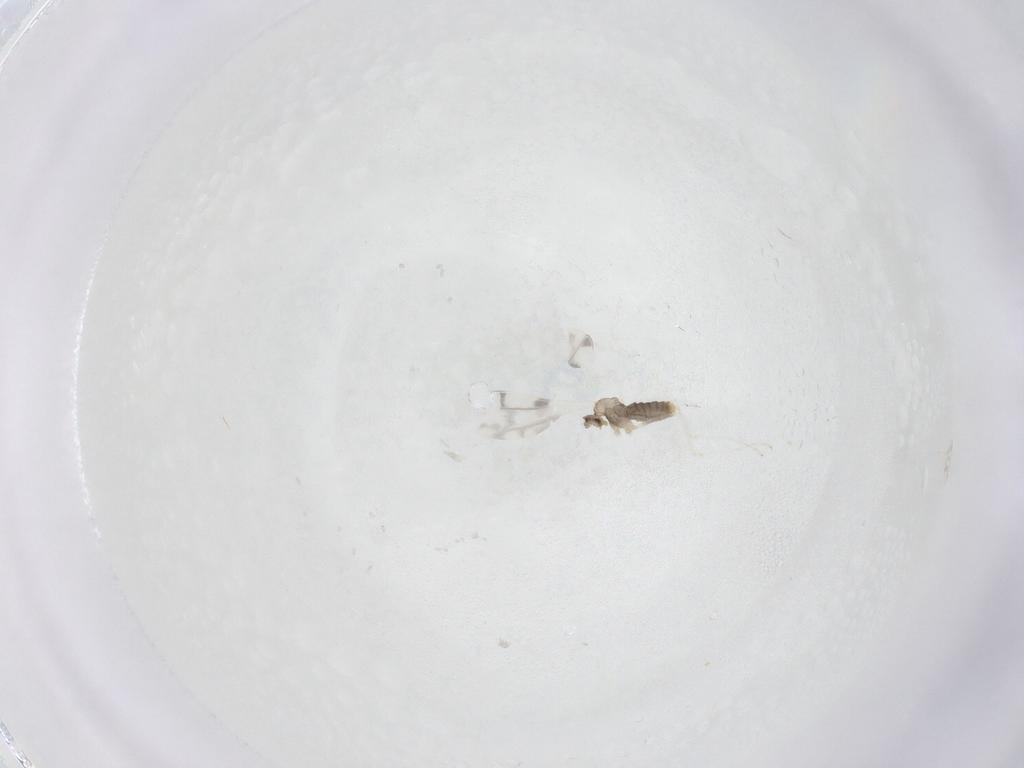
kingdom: Animalia
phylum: Arthropoda
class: Insecta
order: Diptera
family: Cecidomyiidae
